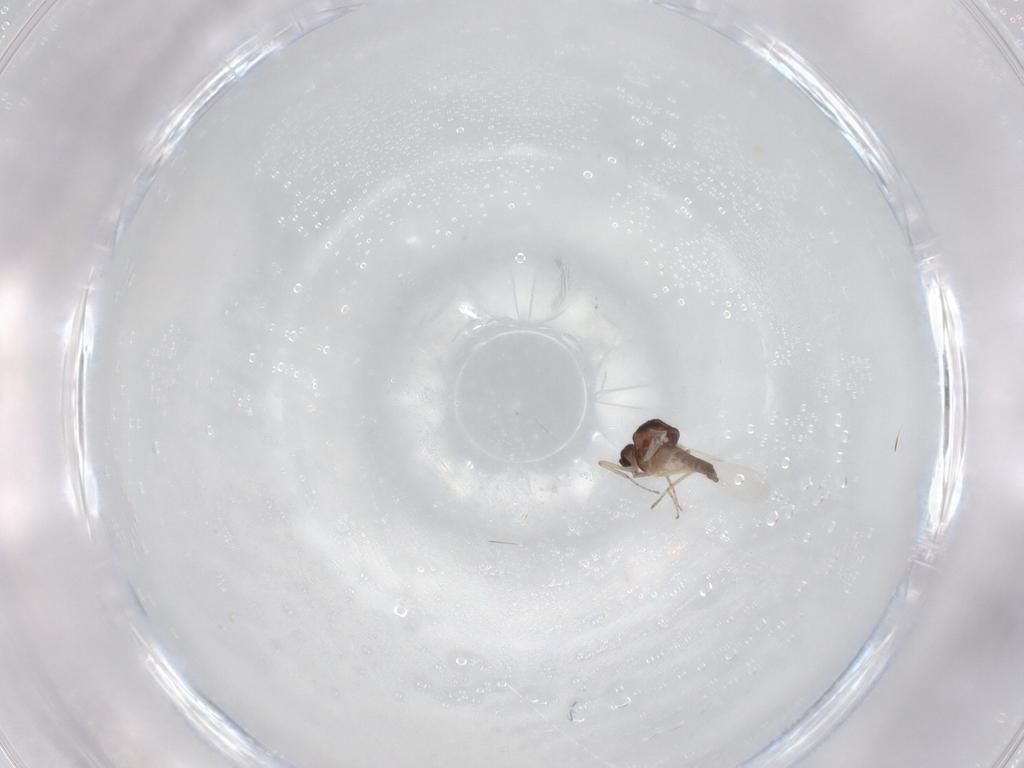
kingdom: Animalia
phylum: Arthropoda
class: Insecta
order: Diptera
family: Ceratopogonidae
